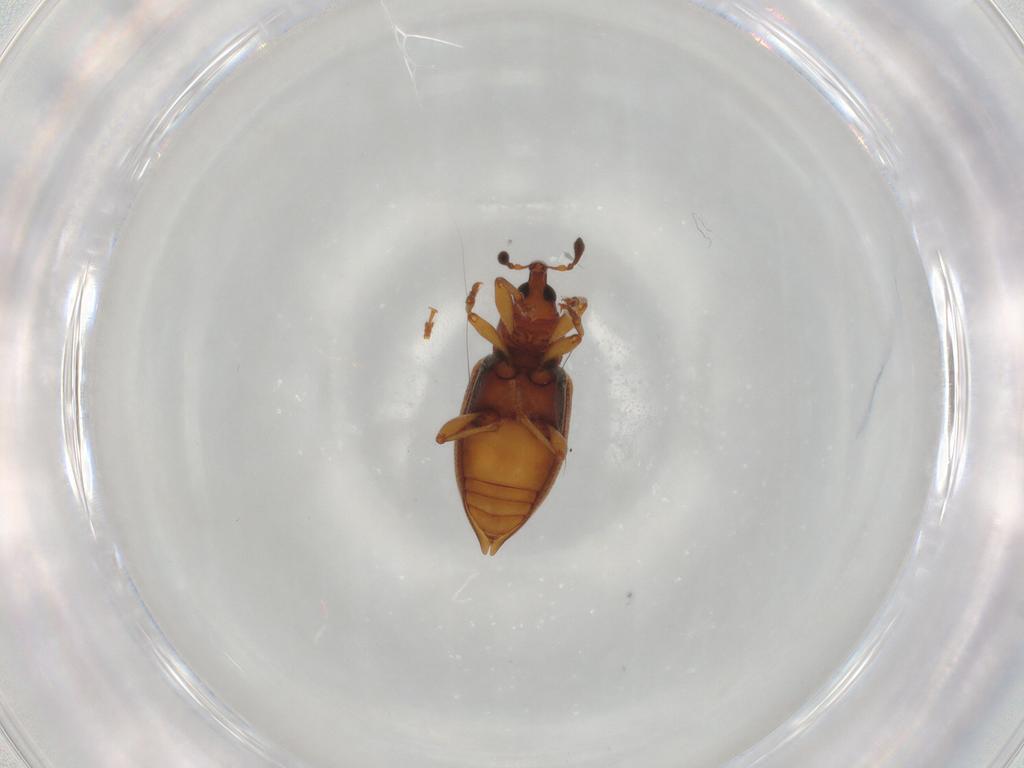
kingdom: Animalia
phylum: Arthropoda
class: Insecta
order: Coleoptera
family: Curculionidae
